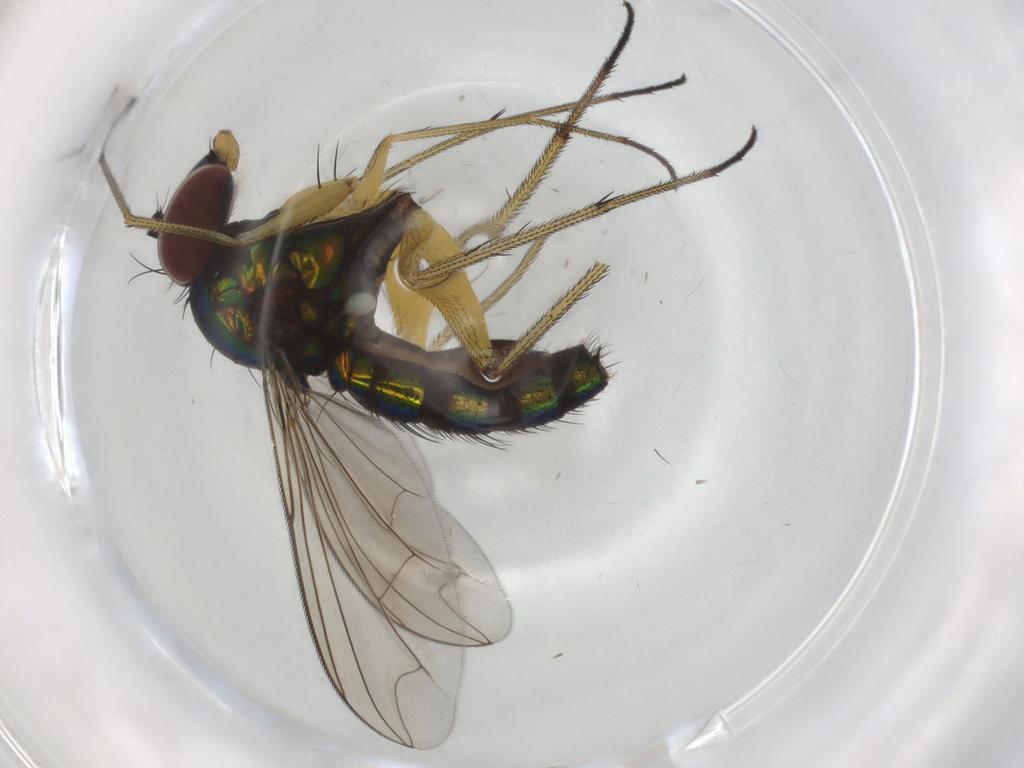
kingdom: Animalia
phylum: Arthropoda
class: Insecta
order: Diptera
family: Dolichopodidae
